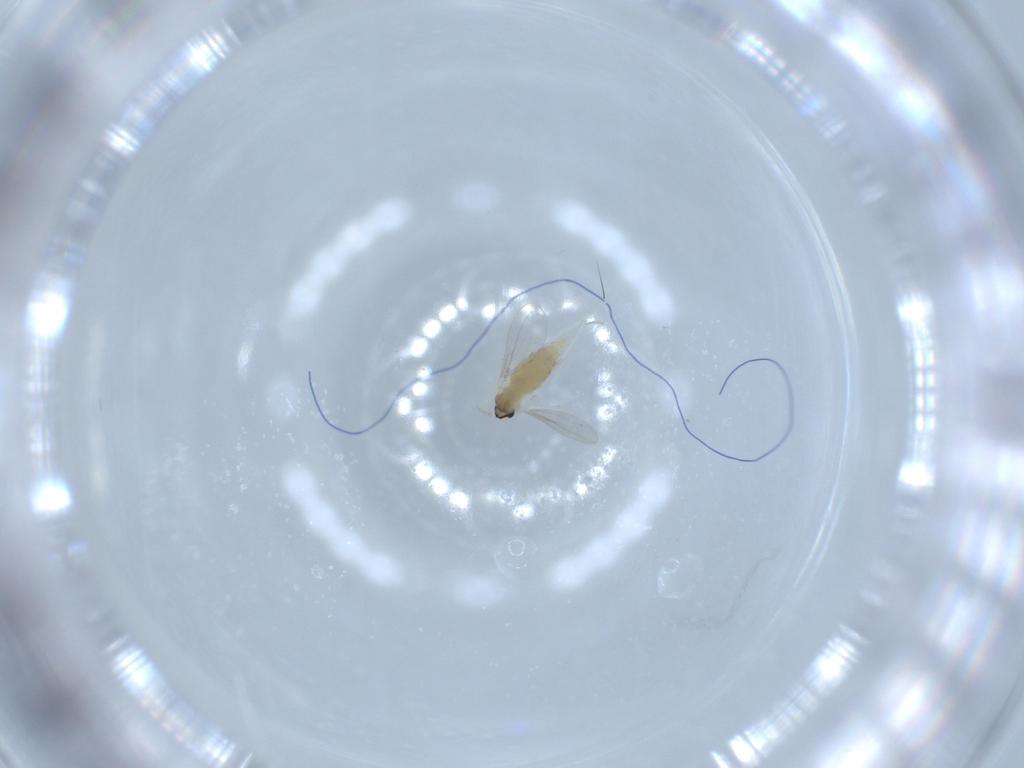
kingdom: Animalia
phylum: Arthropoda
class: Insecta
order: Diptera
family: Cecidomyiidae
